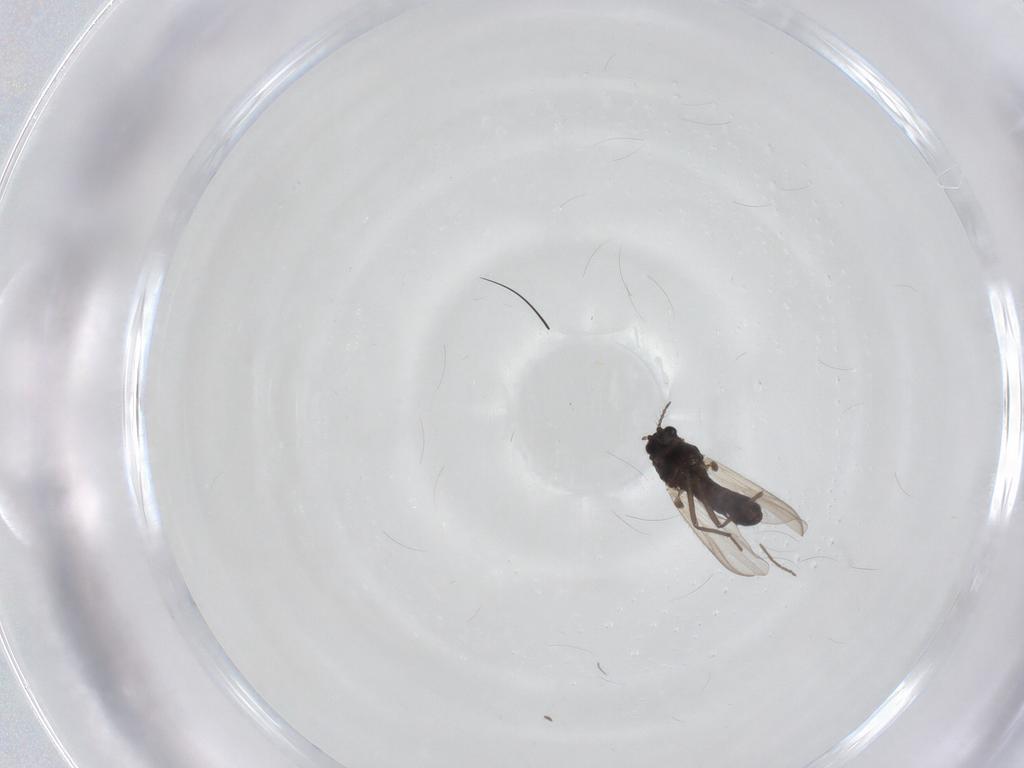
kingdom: Animalia
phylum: Arthropoda
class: Insecta
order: Diptera
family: Chironomidae
